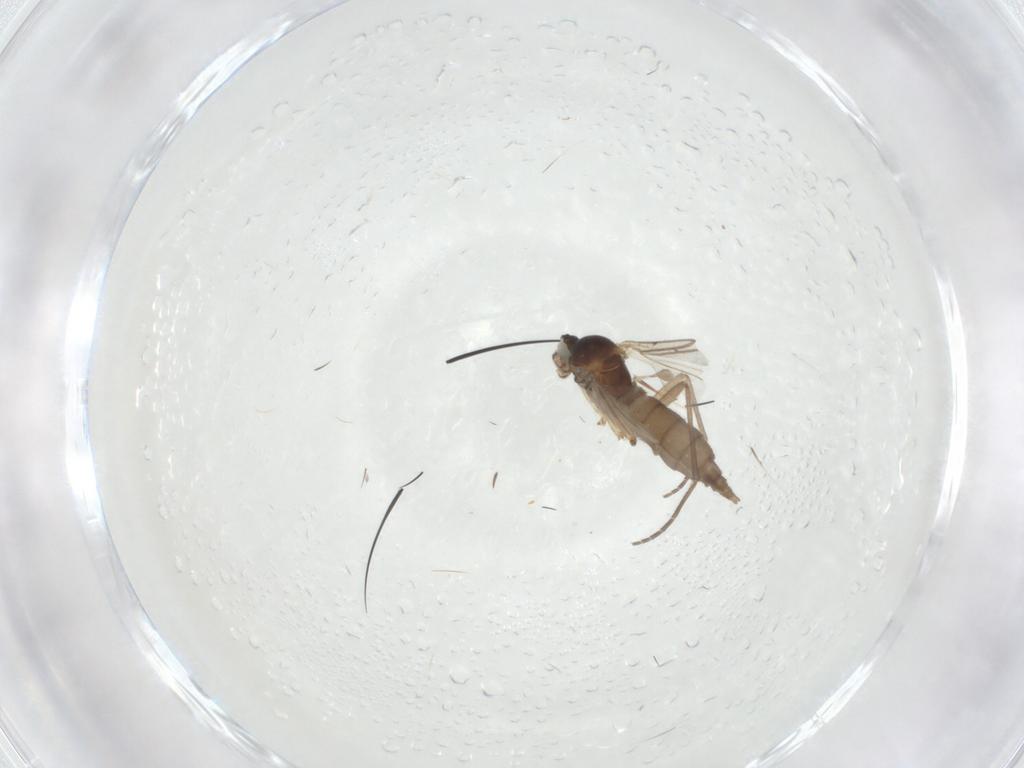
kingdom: Animalia
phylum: Arthropoda
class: Insecta
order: Diptera
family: Sciaridae
